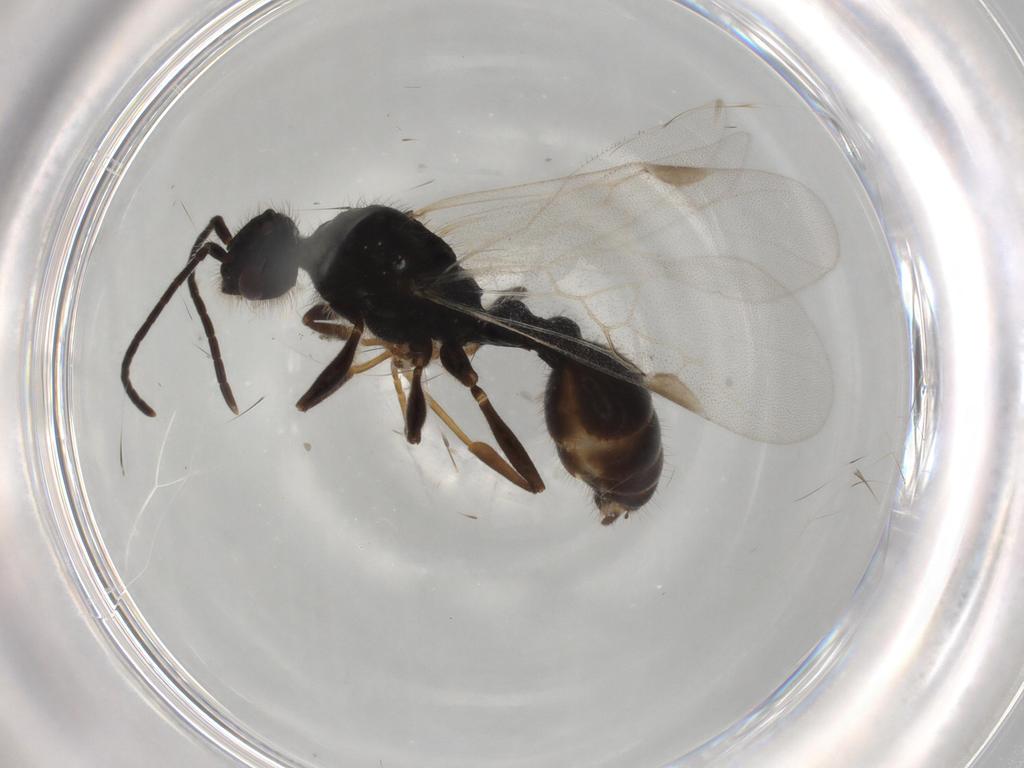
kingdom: Animalia
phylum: Arthropoda
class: Insecta
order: Hymenoptera
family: Formicidae
